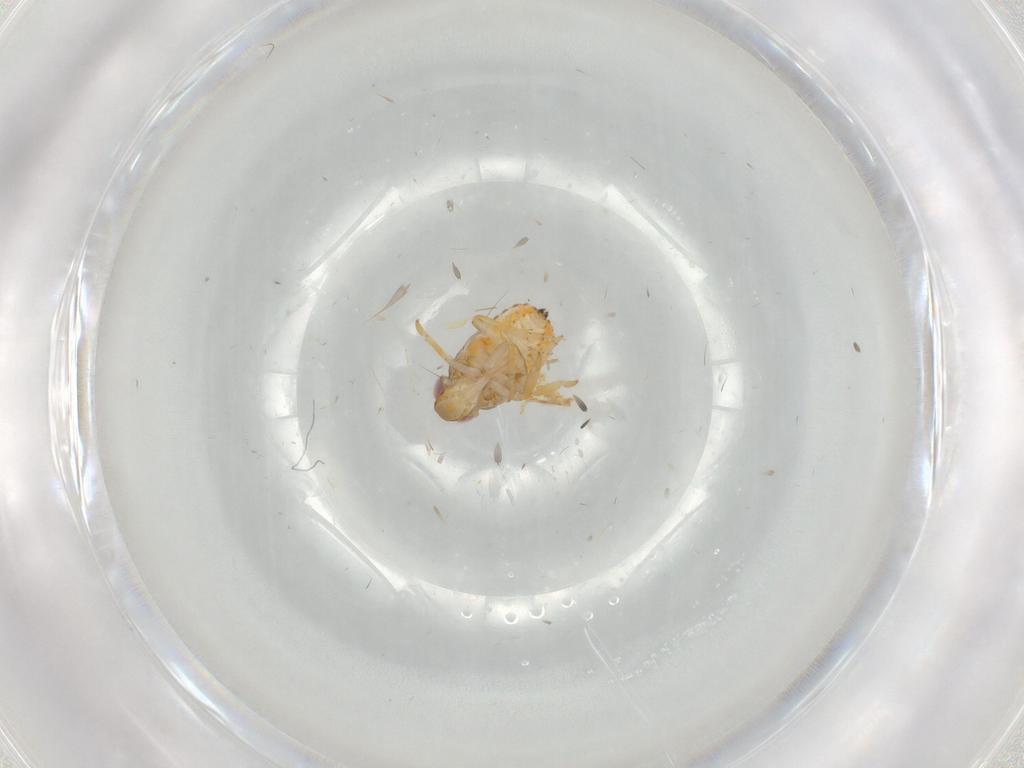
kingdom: Animalia
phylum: Arthropoda
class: Insecta
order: Hemiptera
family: Issidae
